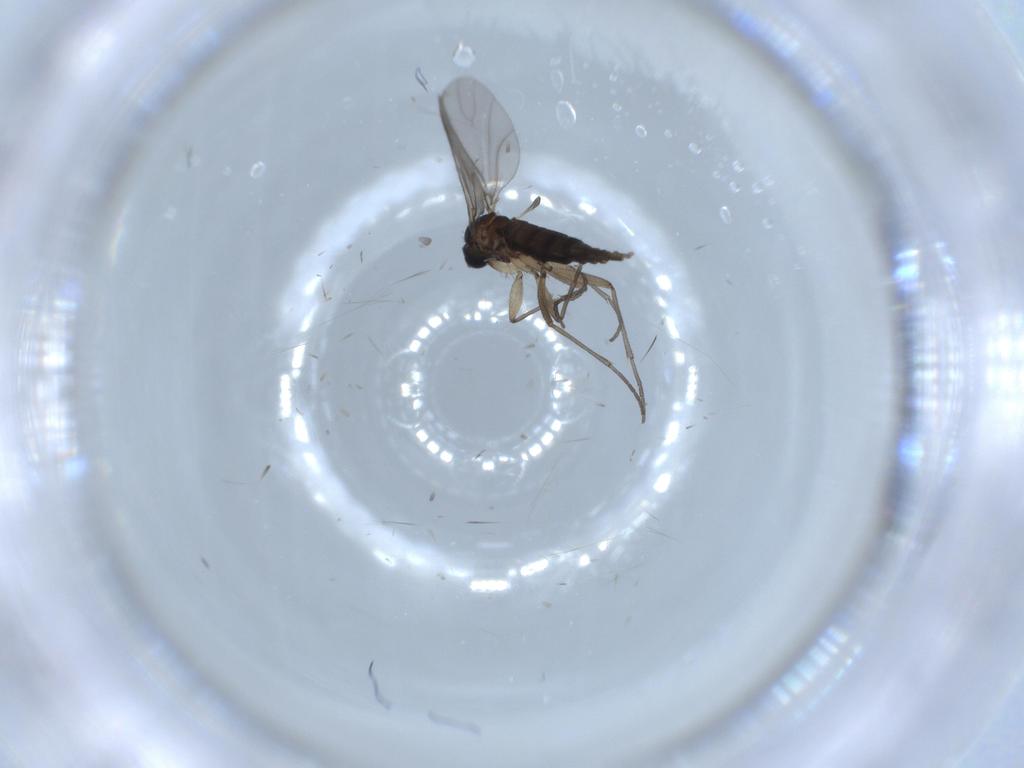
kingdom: Animalia
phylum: Arthropoda
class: Insecta
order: Diptera
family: Sciaridae
